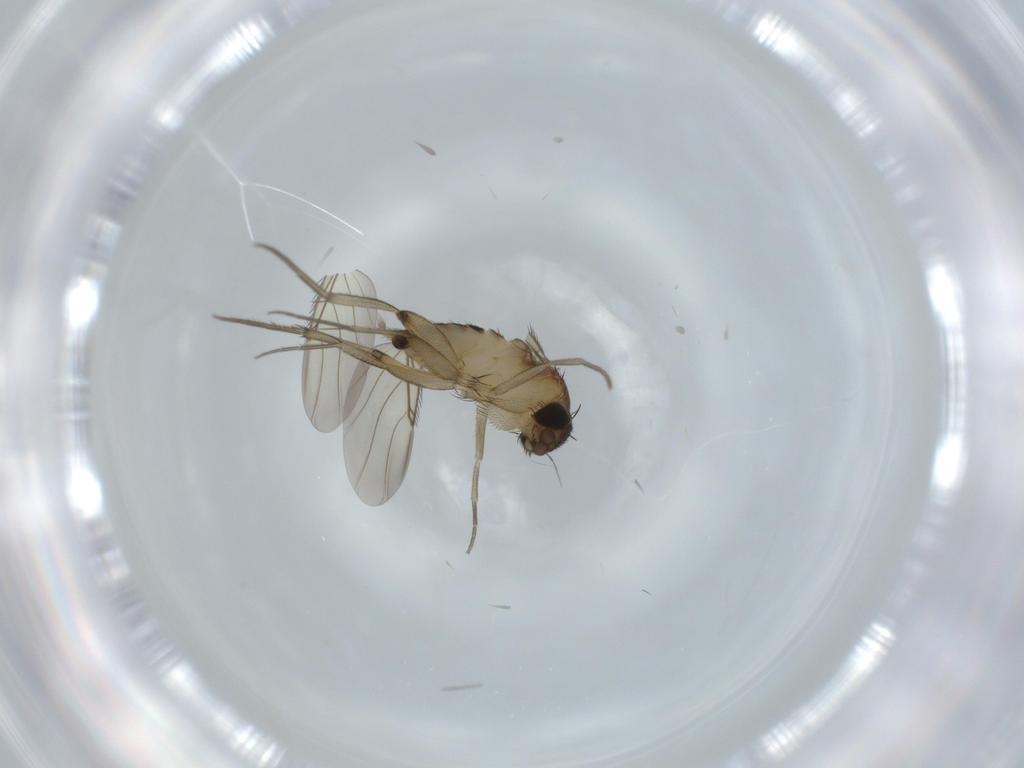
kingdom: Animalia
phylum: Arthropoda
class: Insecta
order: Diptera
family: Phoridae
